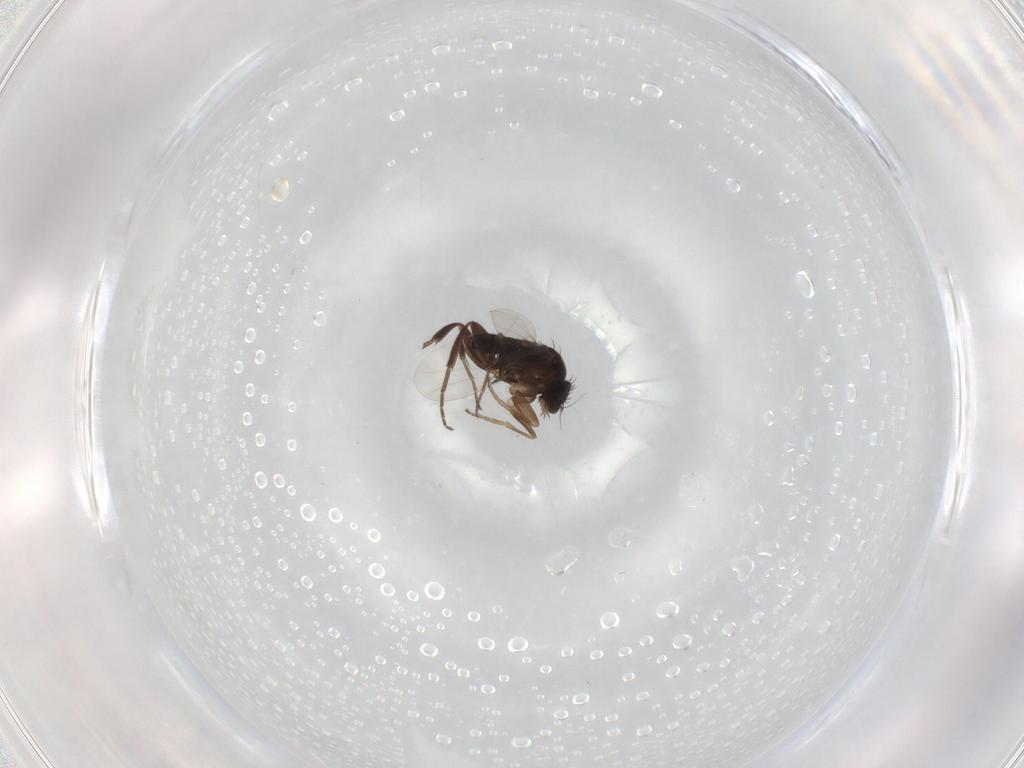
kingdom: Animalia
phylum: Arthropoda
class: Insecta
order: Diptera
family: Phoridae
